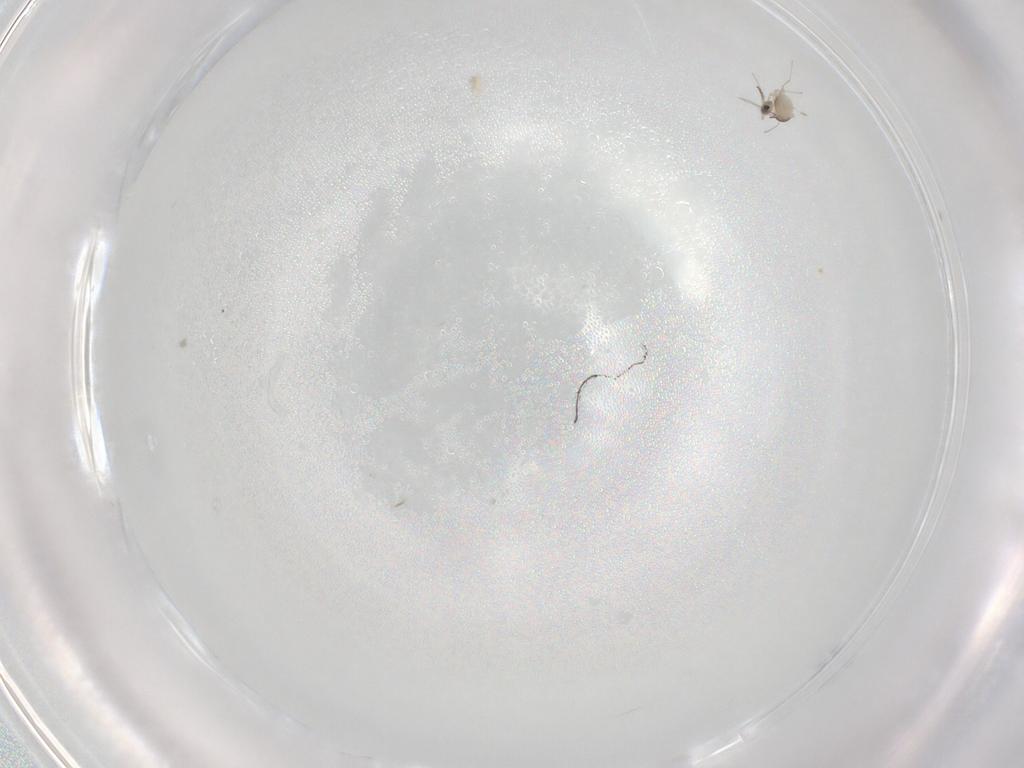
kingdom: Animalia
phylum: Arthropoda
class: Insecta
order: Diptera
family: Cecidomyiidae
